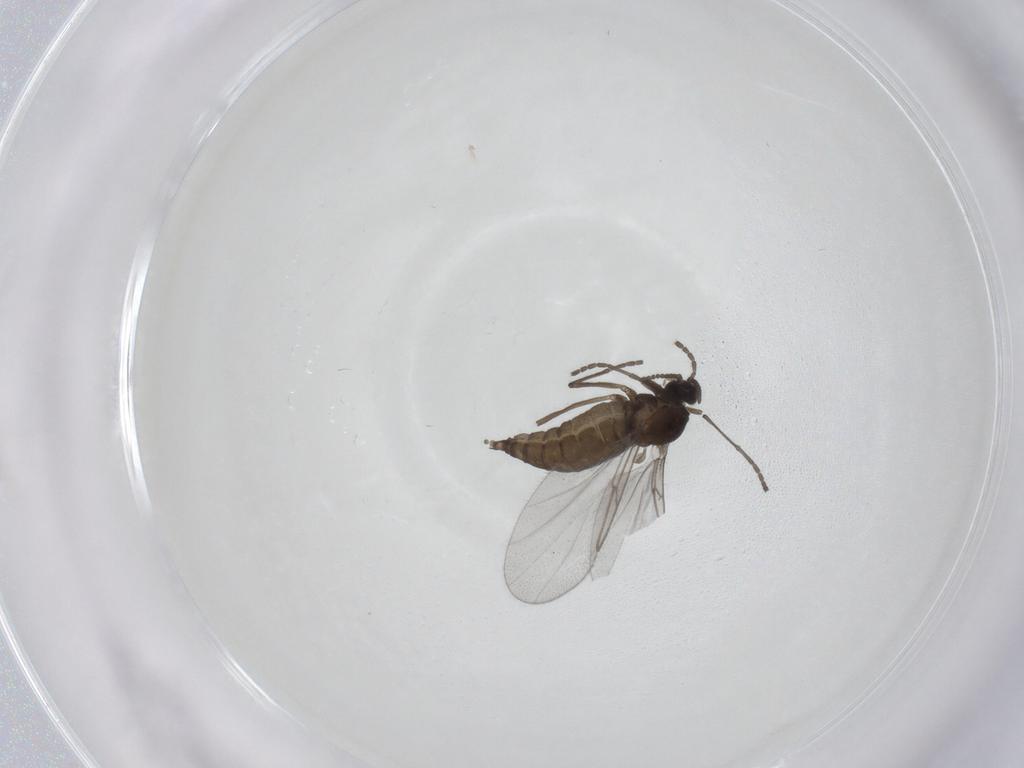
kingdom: Animalia
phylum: Arthropoda
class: Insecta
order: Diptera
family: Cecidomyiidae
